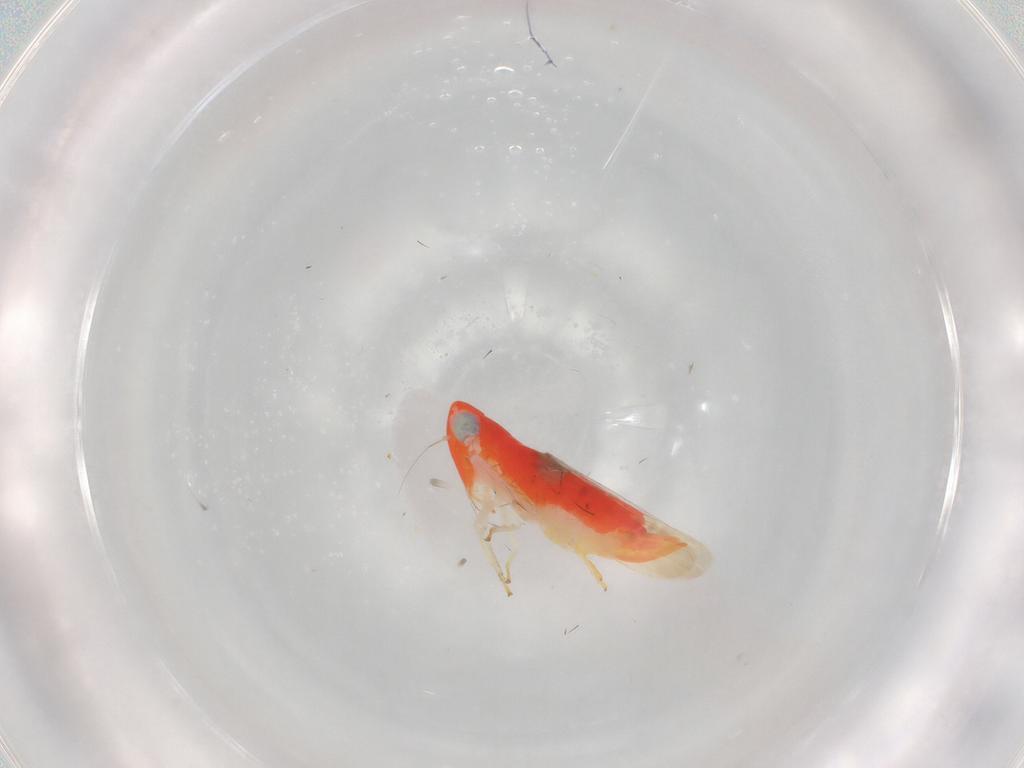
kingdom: Animalia
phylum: Arthropoda
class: Insecta
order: Hemiptera
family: Cicadellidae
